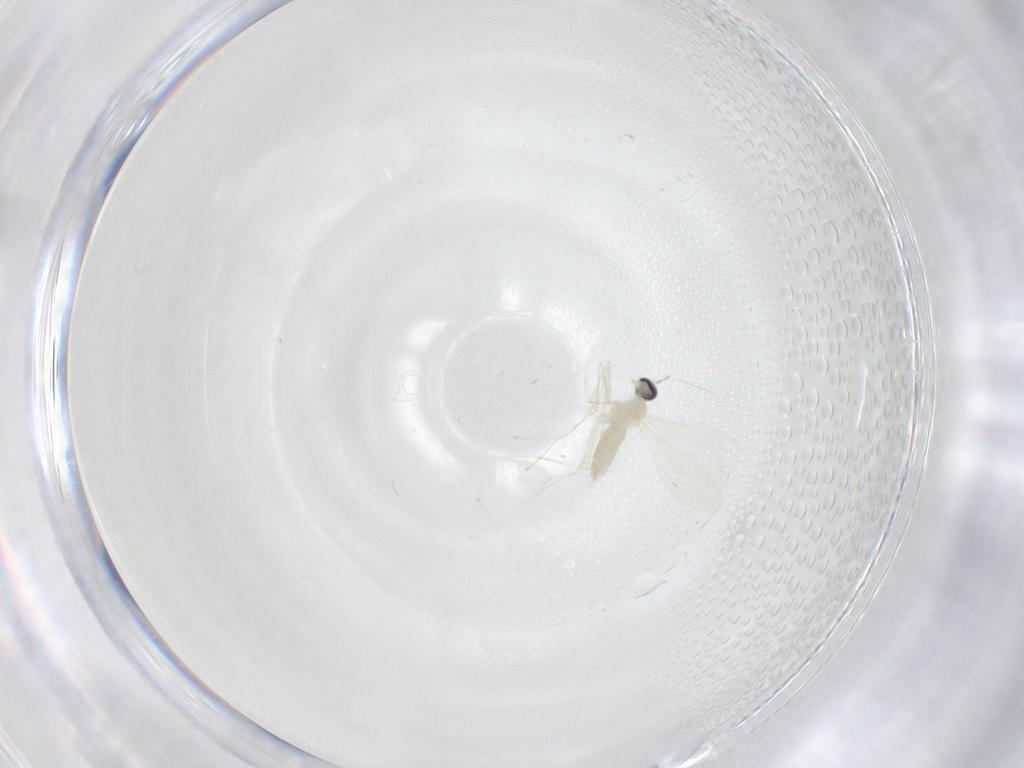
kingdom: Animalia
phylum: Arthropoda
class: Insecta
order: Diptera
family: Cecidomyiidae
